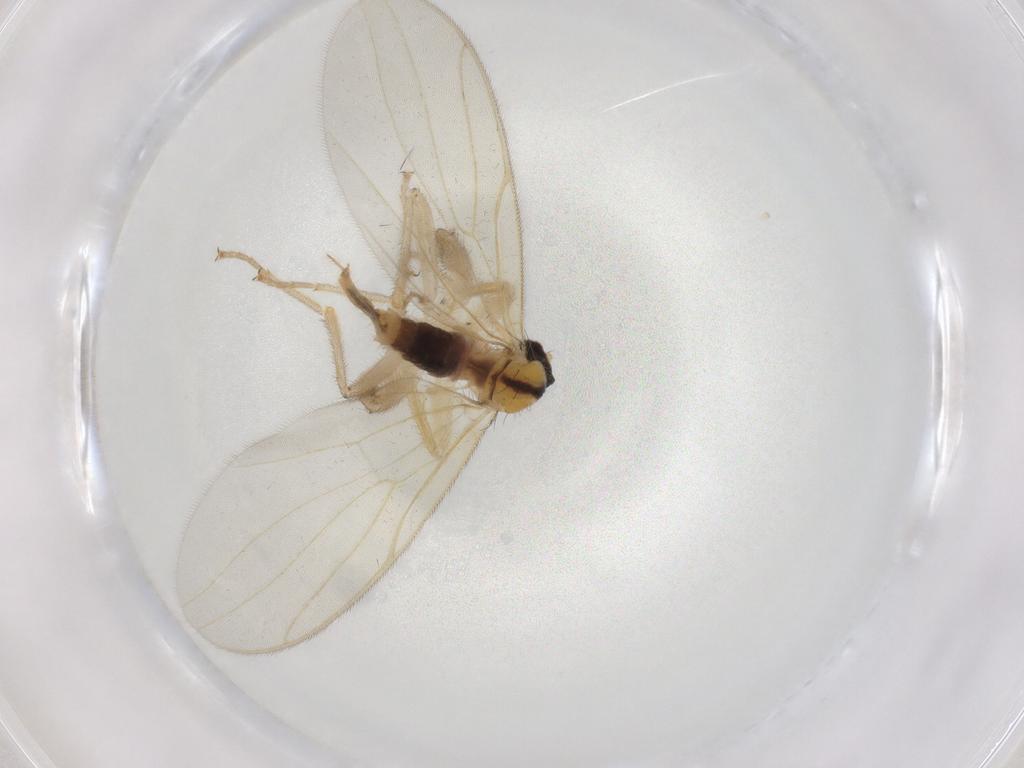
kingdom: Animalia
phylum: Arthropoda
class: Insecta
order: Diptera
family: Hybotidae
